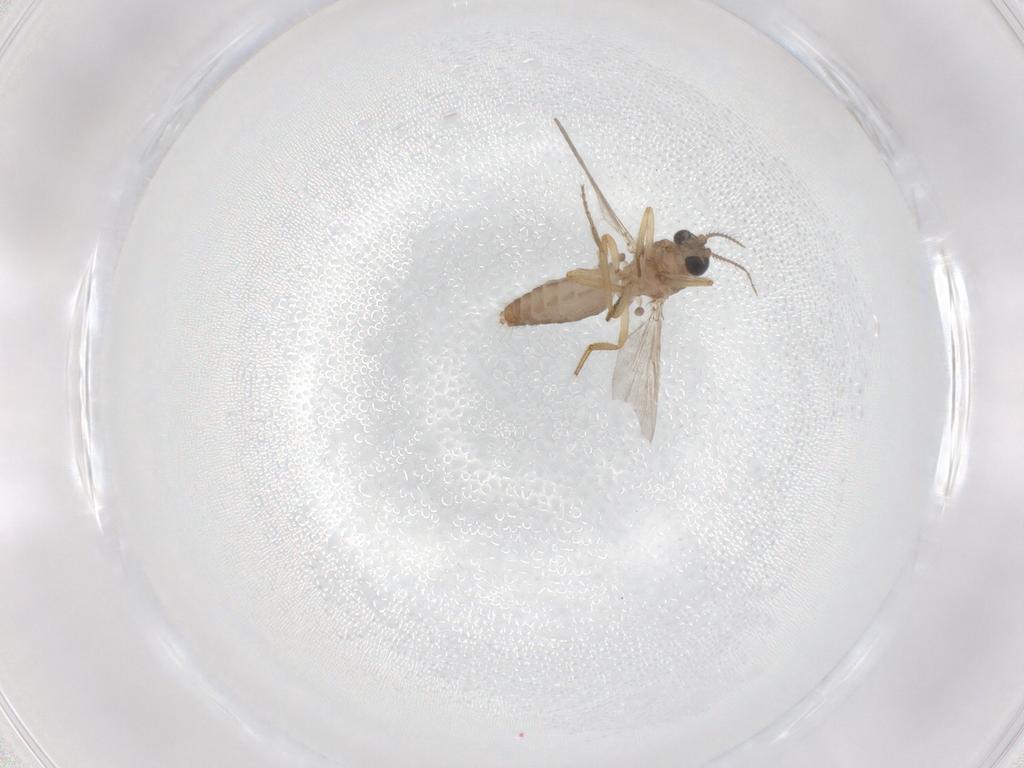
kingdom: Animalia
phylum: Arthropoda
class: Insecta
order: Diptera
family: Ceratopogonidae
